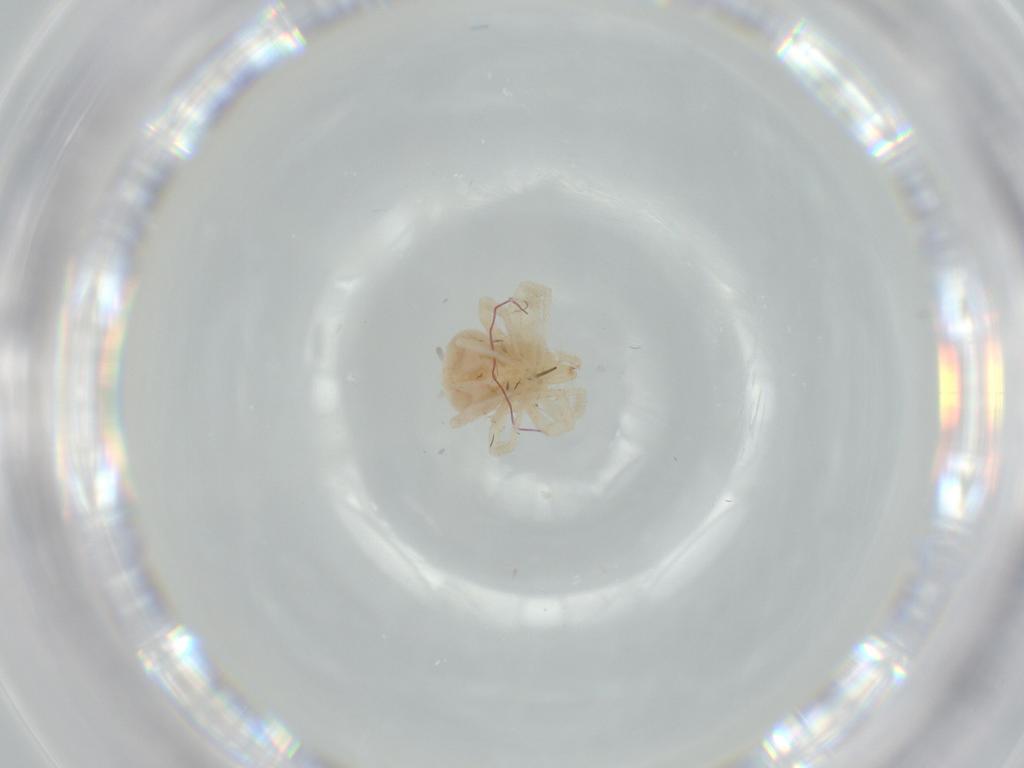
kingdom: Animalia
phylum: Arthropoda
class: Arachnida
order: Trombidiformes
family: Anystidae
